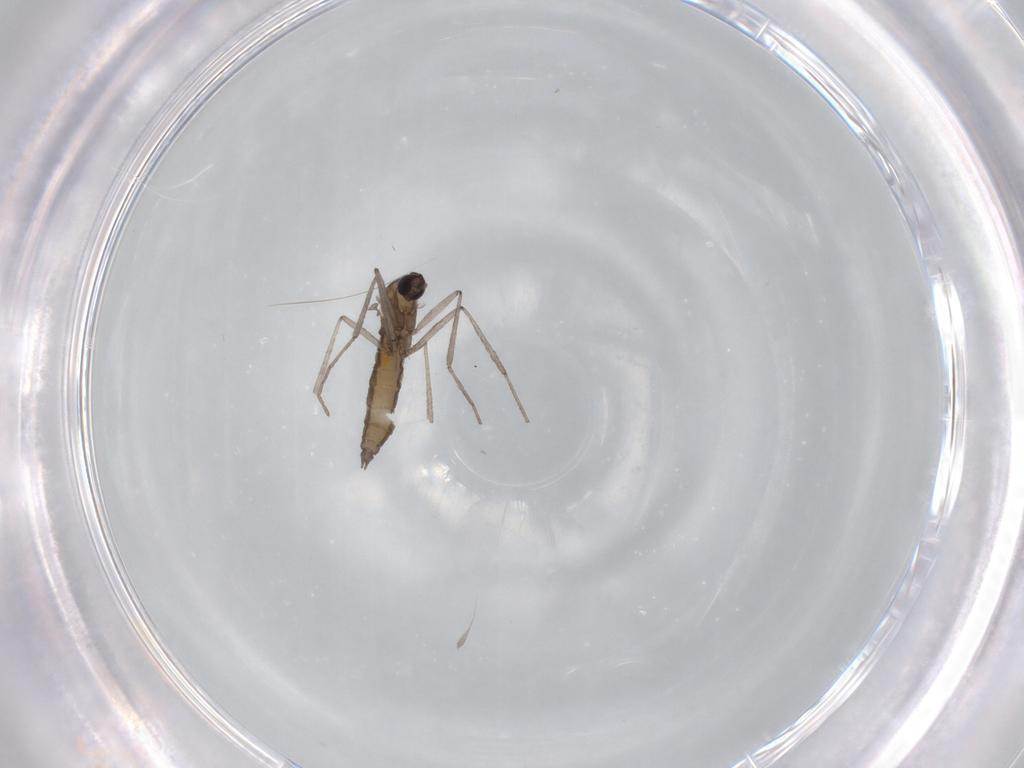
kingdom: Animalia
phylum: Arthropoda
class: Insecta
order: Diptera
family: Cecidomyiidae
